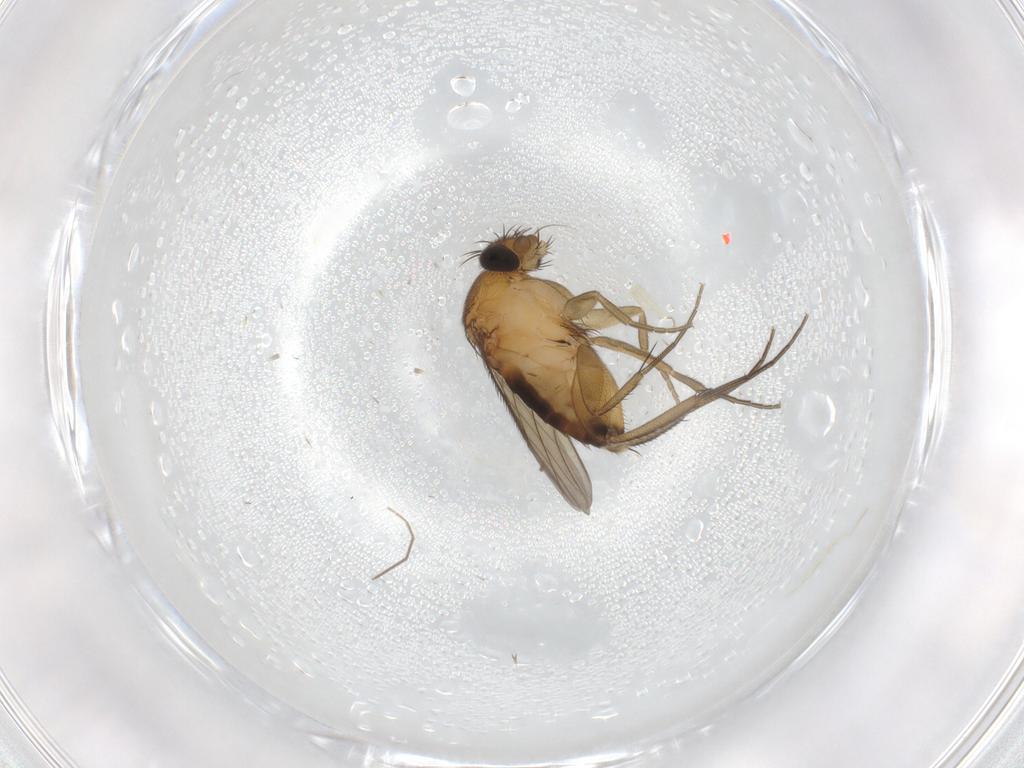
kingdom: Animalia
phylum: Arthropoda
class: Insecta
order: Diptera
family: Phoridae
